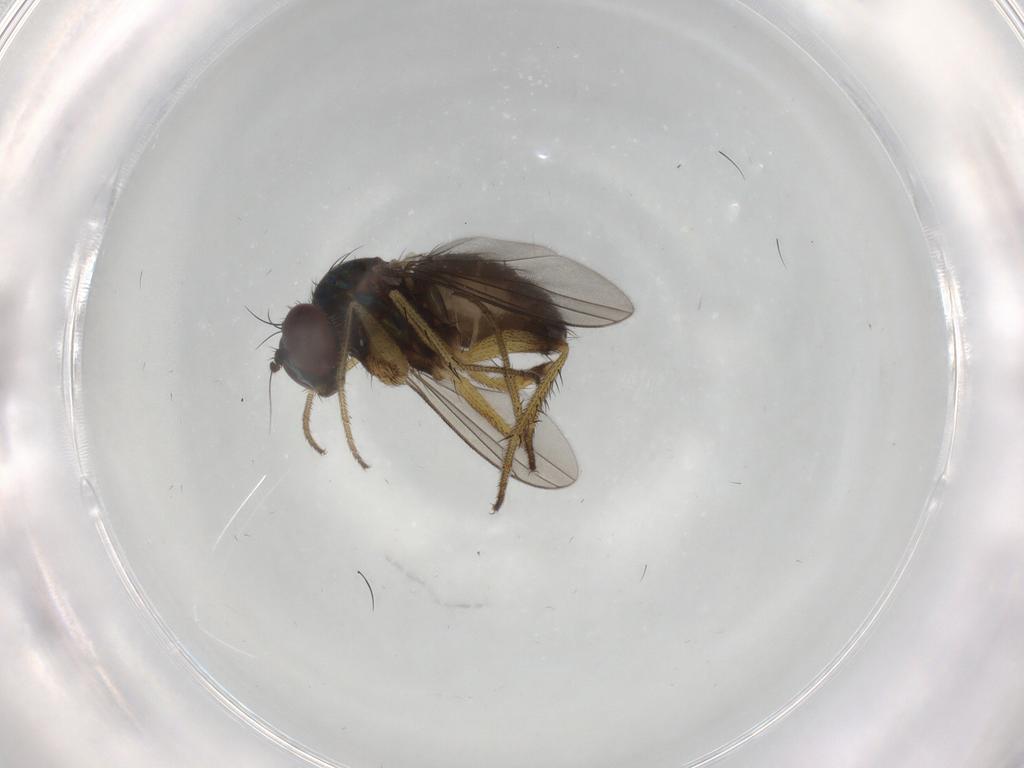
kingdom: Animalia
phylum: Arthropoda
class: Insecta
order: Diptera
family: Dolichopodidae
